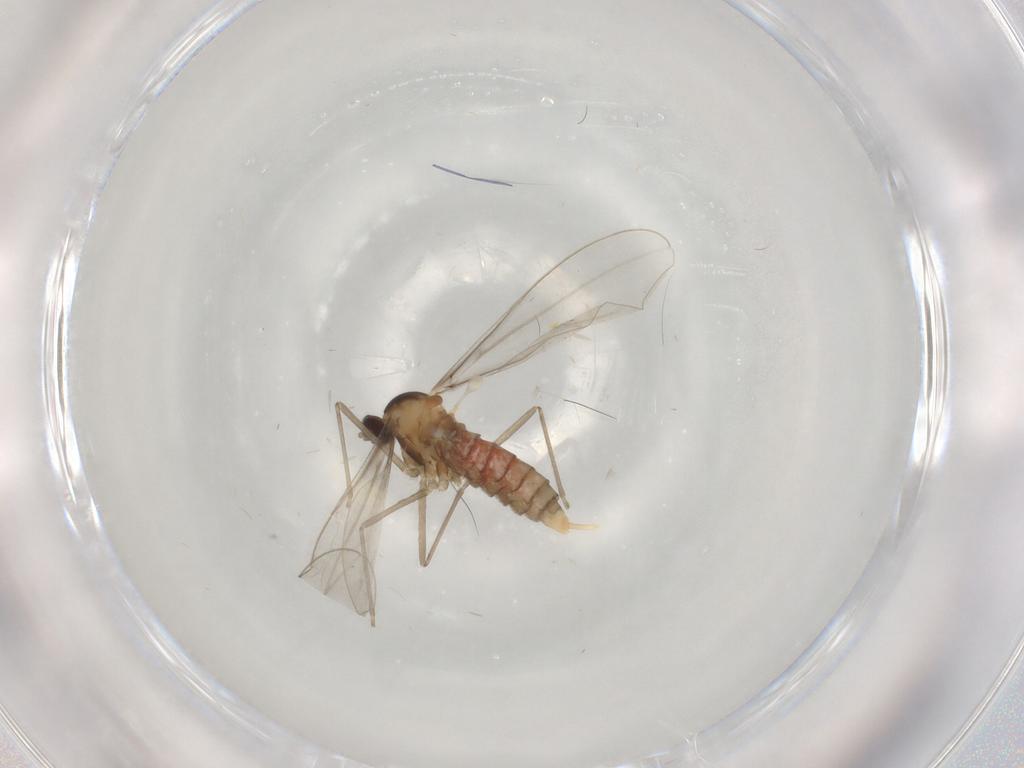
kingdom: Animalia
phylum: Arthropoda
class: Insecta
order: Diptera
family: Cecidomyiidae
